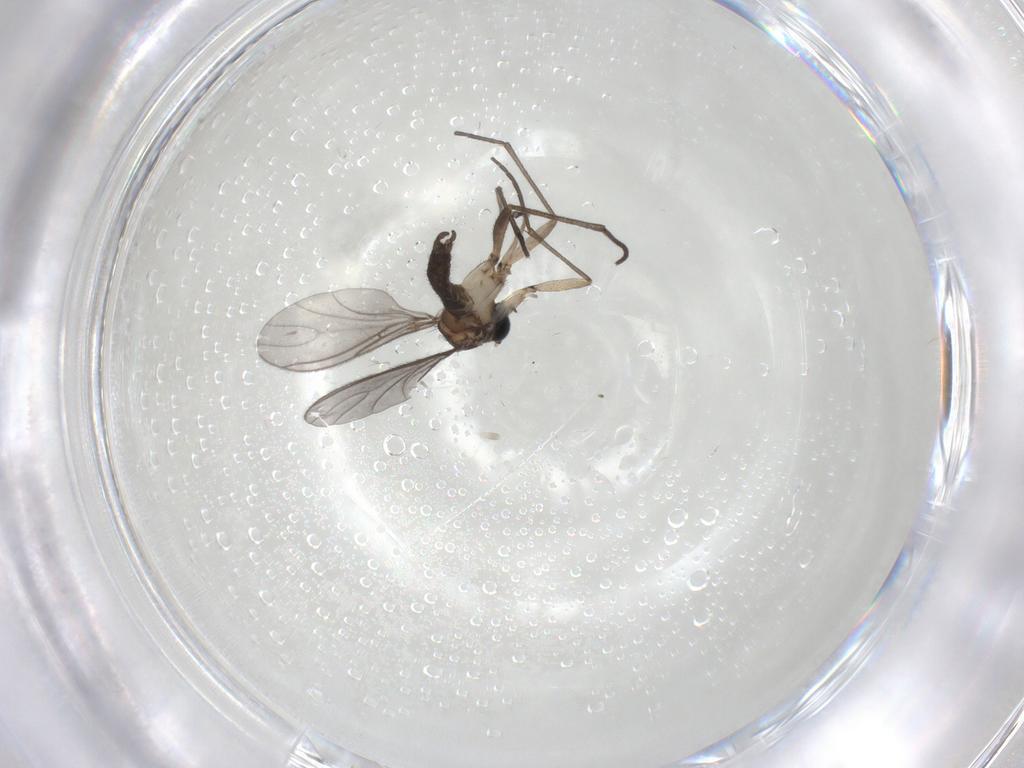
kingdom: Animalia
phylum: Arthropoda
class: Insecta
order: Diptera
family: Sciaridae
